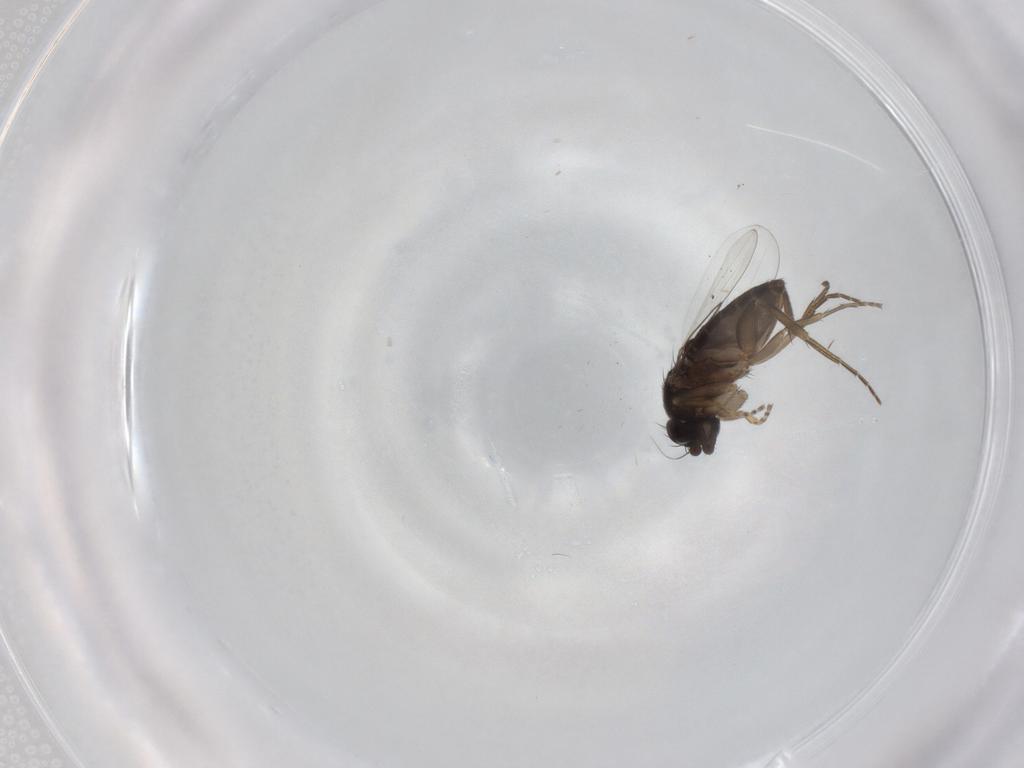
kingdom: Animalia
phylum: Arthropoda
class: Insecta
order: Diptera
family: Phoridae
